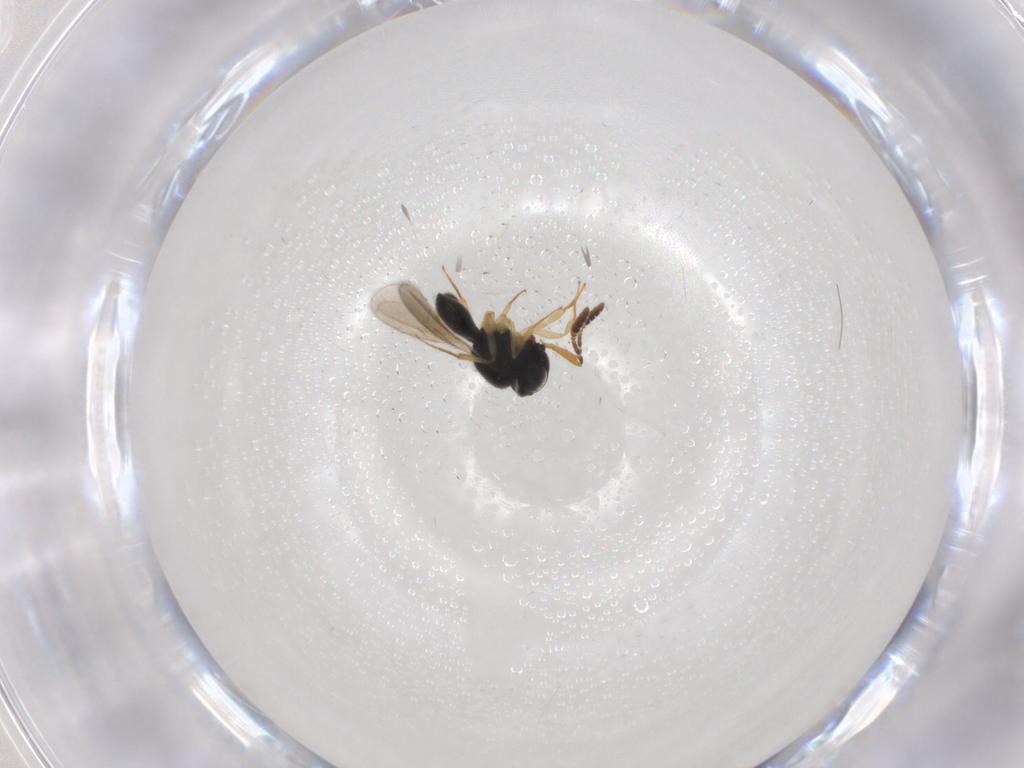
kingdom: Animalia
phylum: Arthropoda
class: Insecta
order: Hymenoptera
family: Scelionidae
